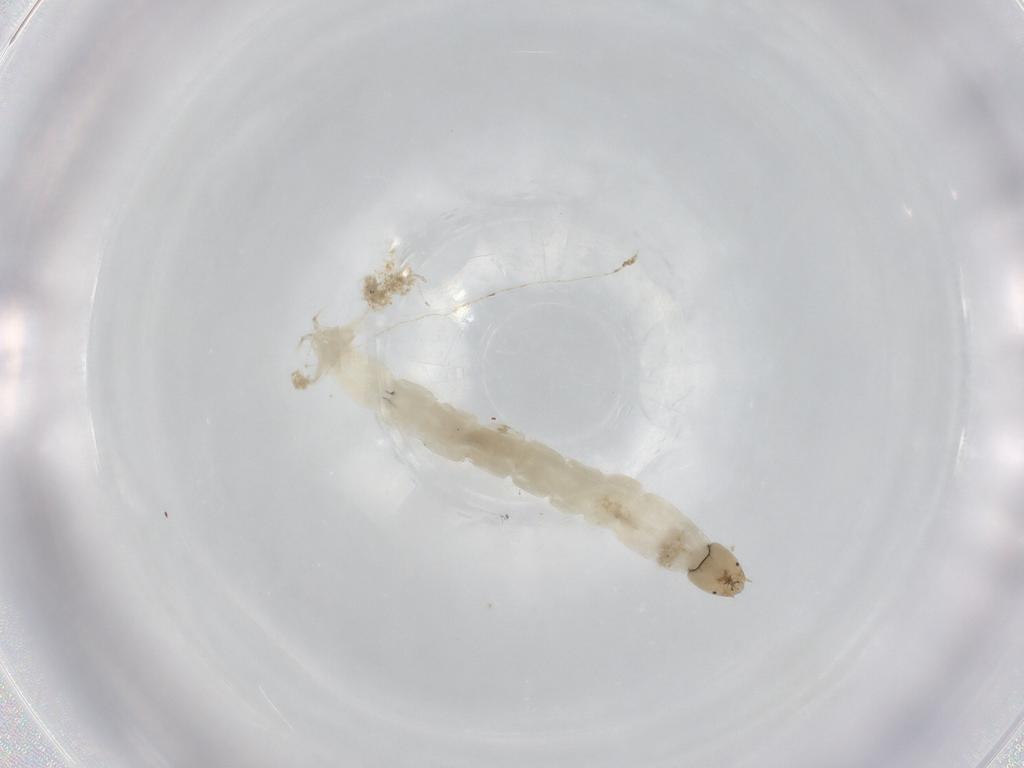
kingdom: Animalia
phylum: Arthropoda
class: Insecta
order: Diptera
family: Chironomidae
